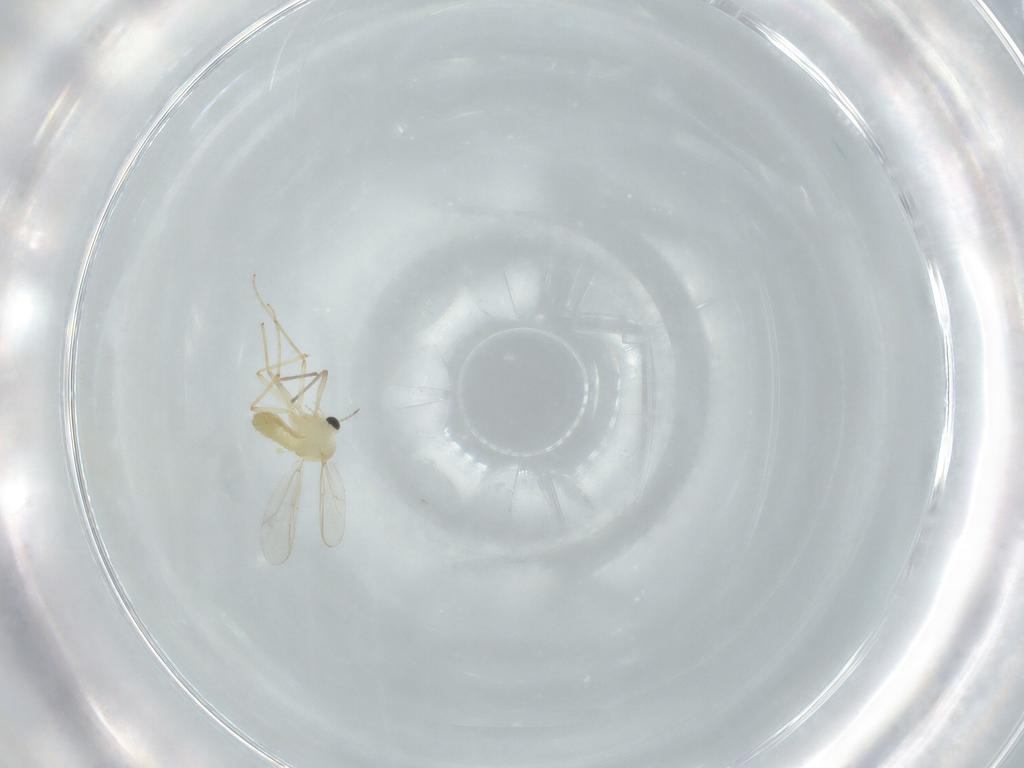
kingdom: Animalia
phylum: Arthropoda
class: Insecta
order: Diptera
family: Chironomidae
